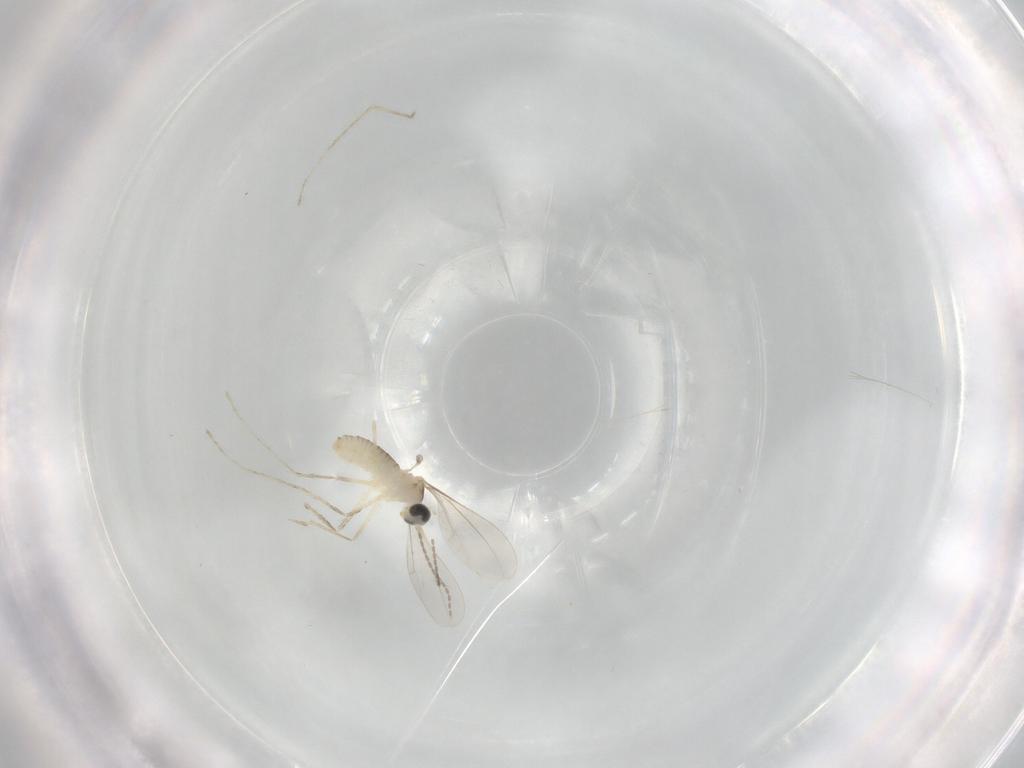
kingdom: Animalia
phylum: Arthropoda
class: Insecta
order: Diptera
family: Cecidomyiidae
